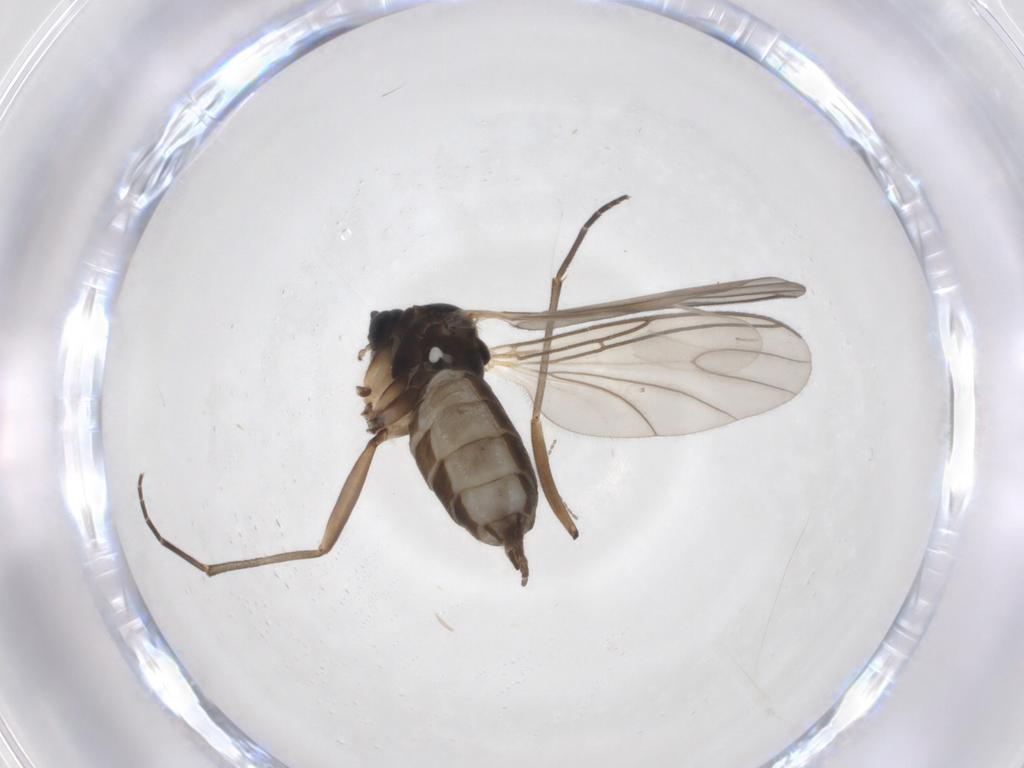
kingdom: Animalia
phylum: Arthropoda
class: Insecta
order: Diptera
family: Sciaridae
